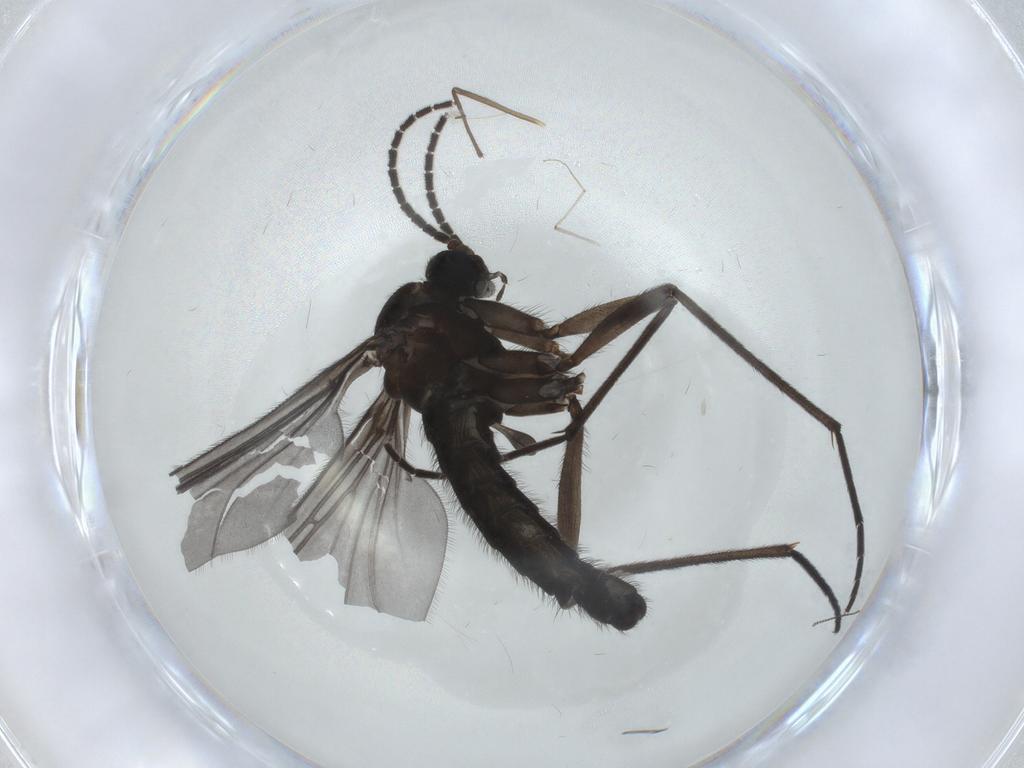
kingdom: Animalia
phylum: Arthropoda
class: Insecta
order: Diptera
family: Sciaridae
